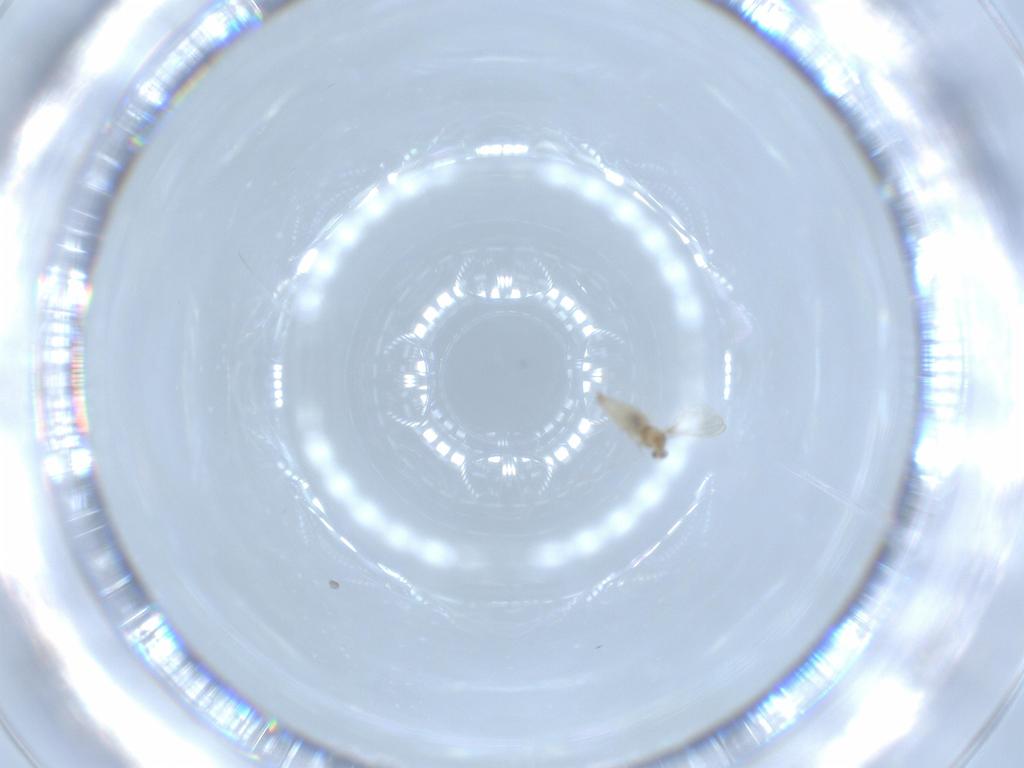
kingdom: Animalia
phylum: Arthropoda
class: Insecta
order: Diptera
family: Cecidomyiidae
